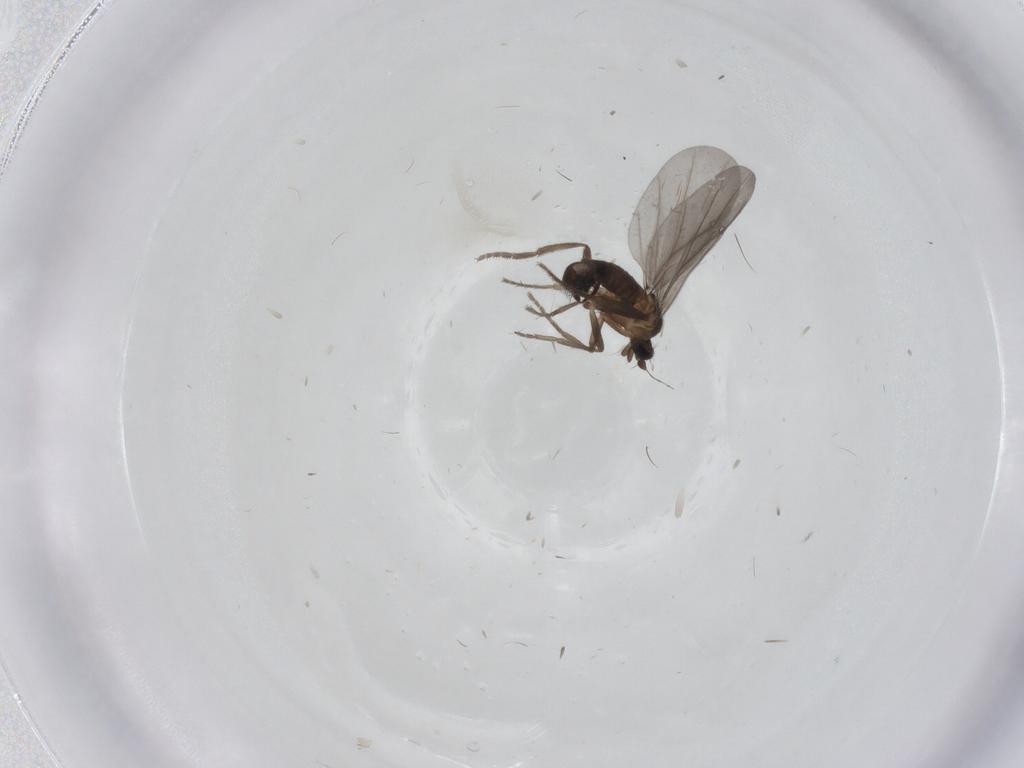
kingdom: Animalia
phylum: Arthropoda
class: Insecta
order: Diptera
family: Phoridae
